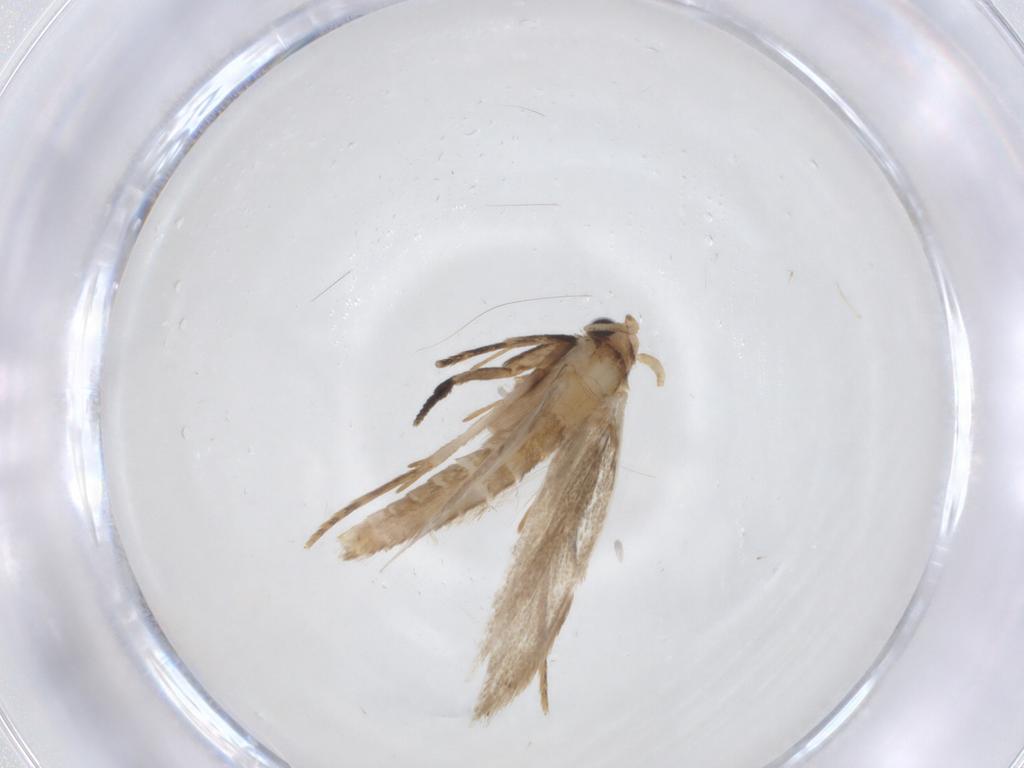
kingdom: Animalia
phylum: Arthropoda
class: Insecta
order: Lepidoptera
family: Tineidae
